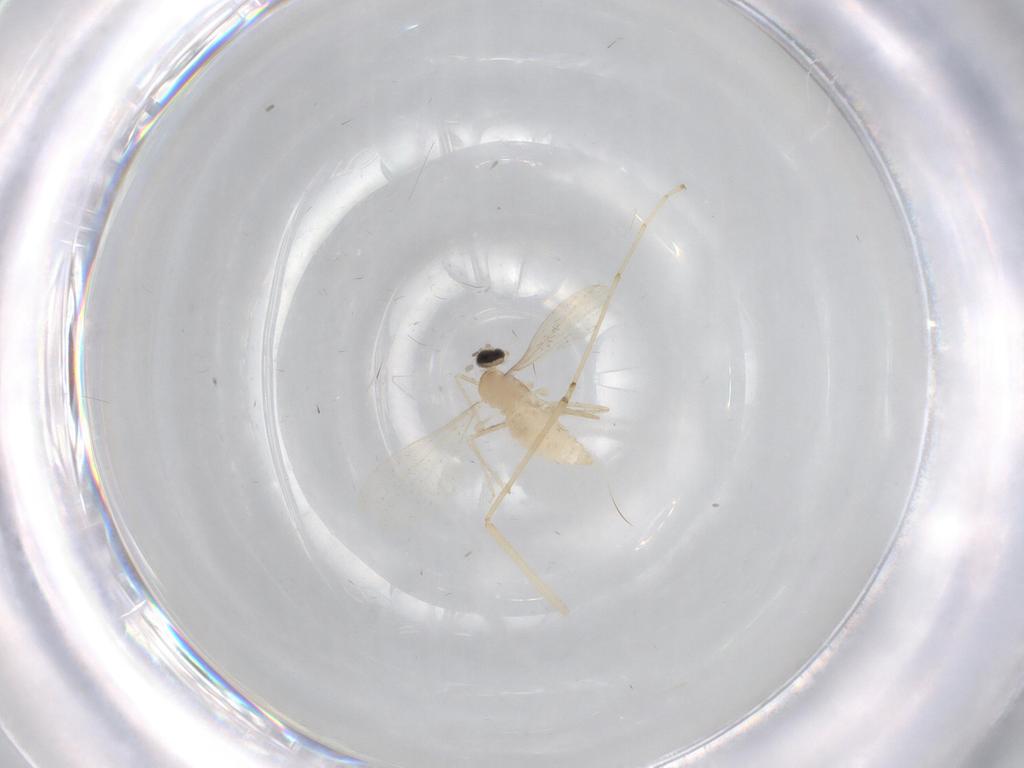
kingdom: Animalia
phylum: Arthropoda
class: Insecta
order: Diptera
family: Cecidomyiidae
